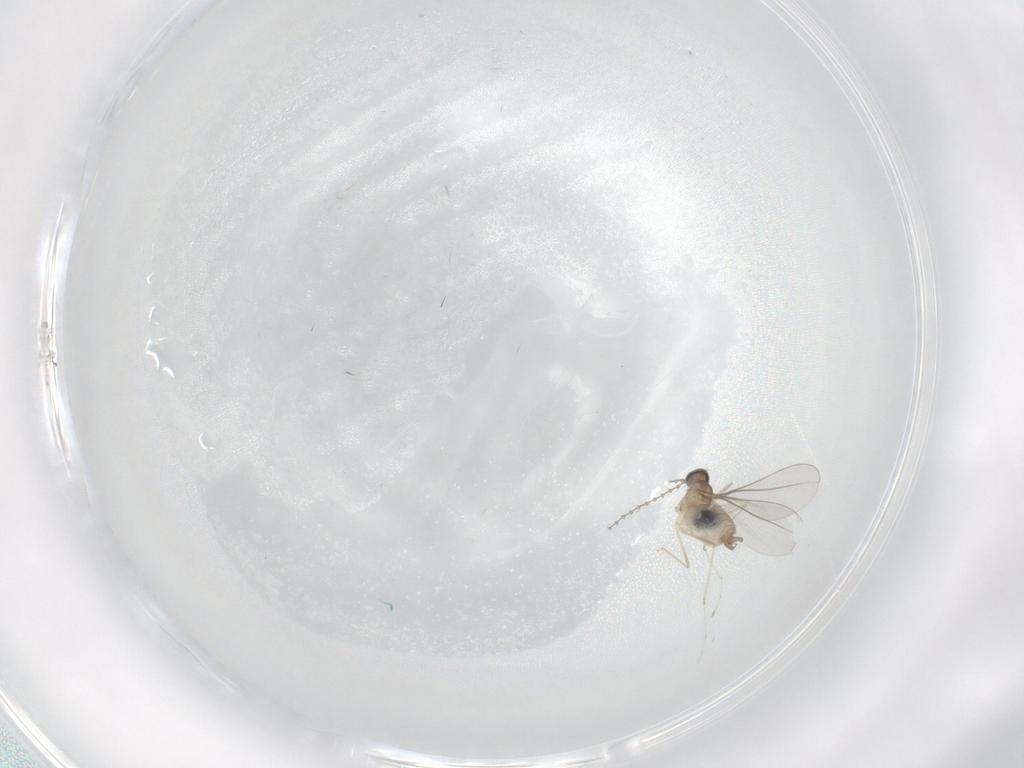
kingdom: Animalia
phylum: Arthropoda
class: Insecta
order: Diptera
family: Cecidomyiidae
